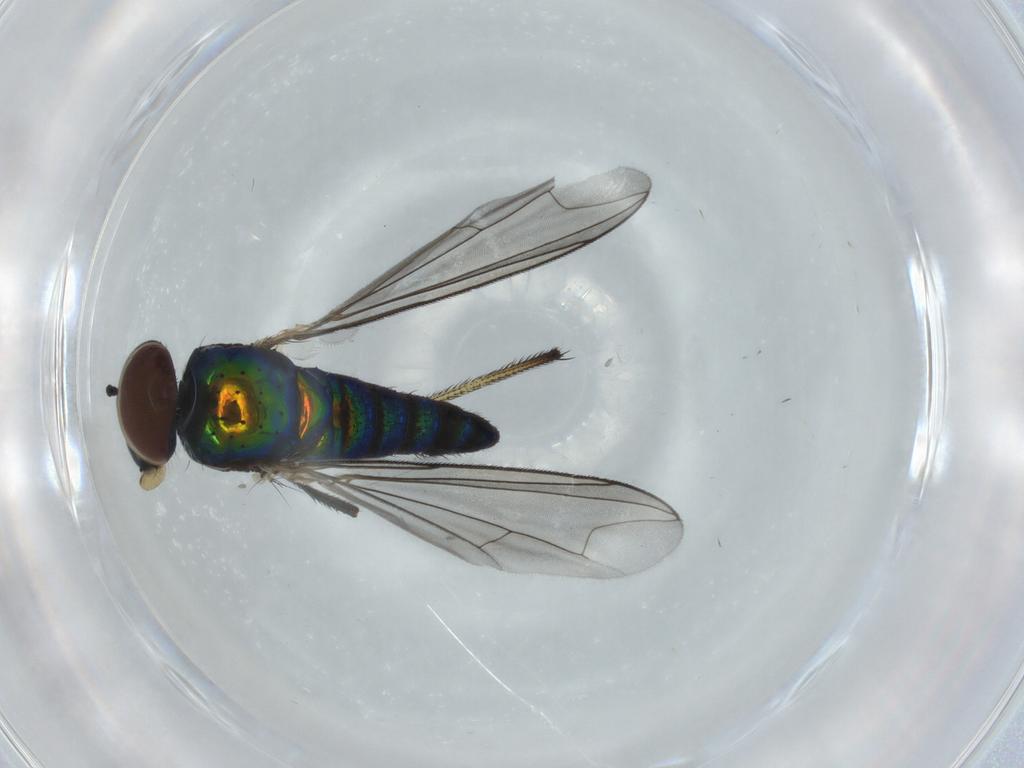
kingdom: Animalia
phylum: Arthropoda
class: Insecta
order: Diptera
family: Dolichopodidae
